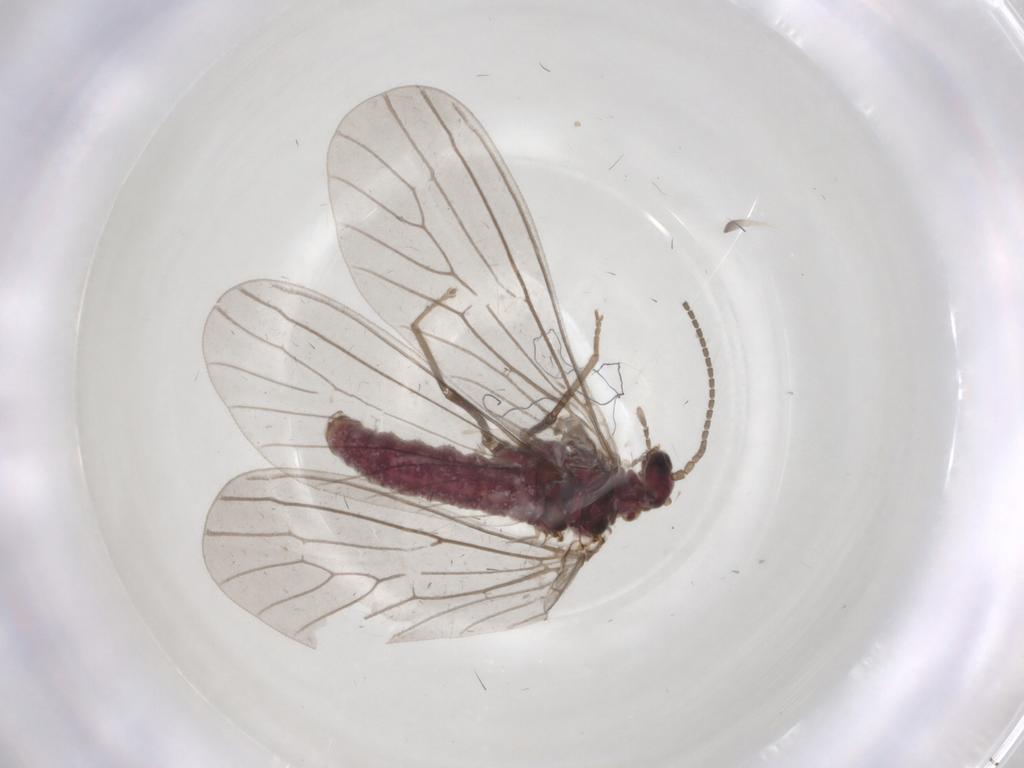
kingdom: Animalia
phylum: Arthropoda
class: Insecta
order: Neuroptera
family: Coniopterygidae
